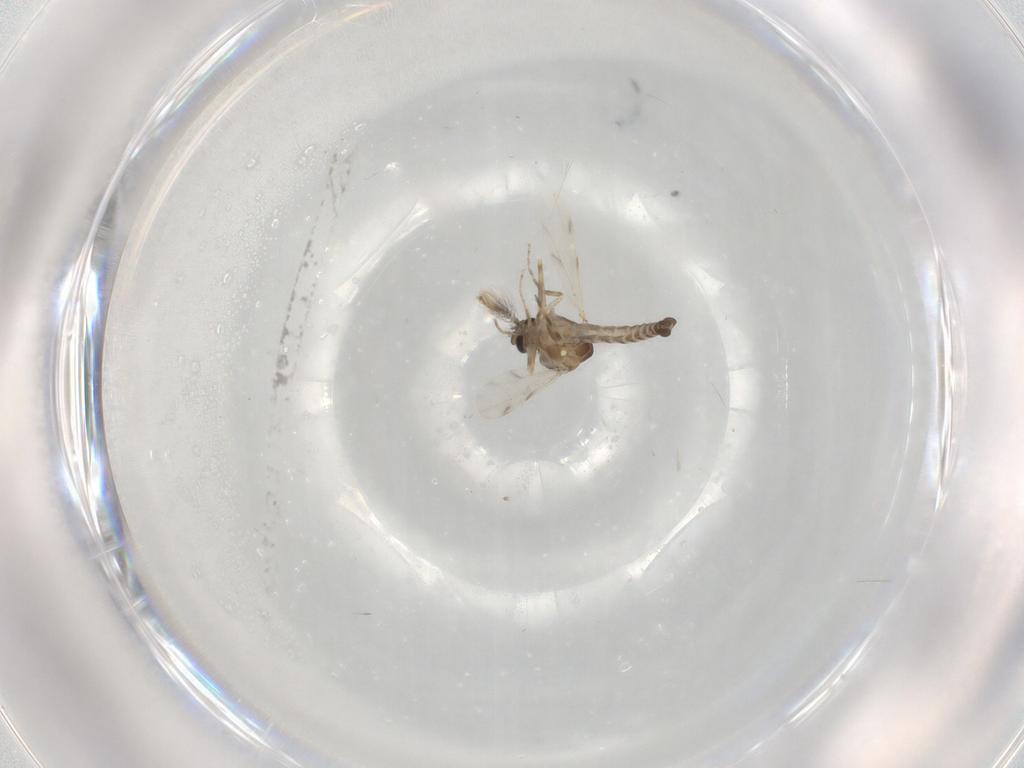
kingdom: Animalia
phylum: Arthropoda
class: Insecta
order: Diptera
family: Ceratopogonidae
